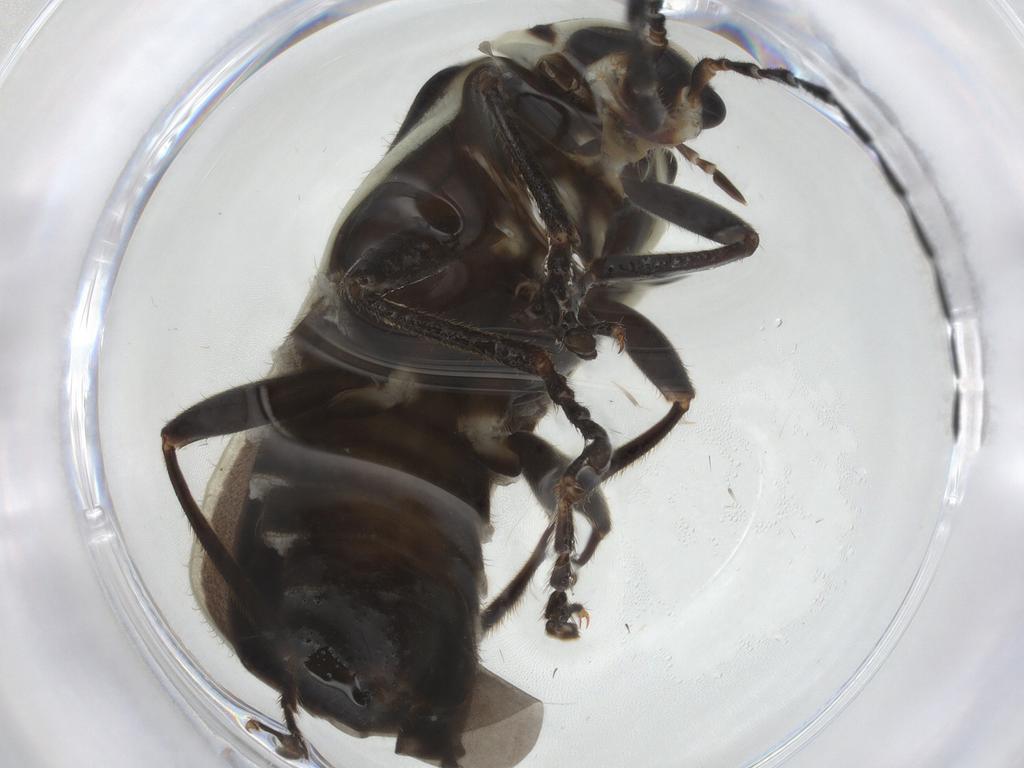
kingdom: Animalia
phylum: Arthropoda
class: Insecta
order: Coleoptera
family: Cantharidae
